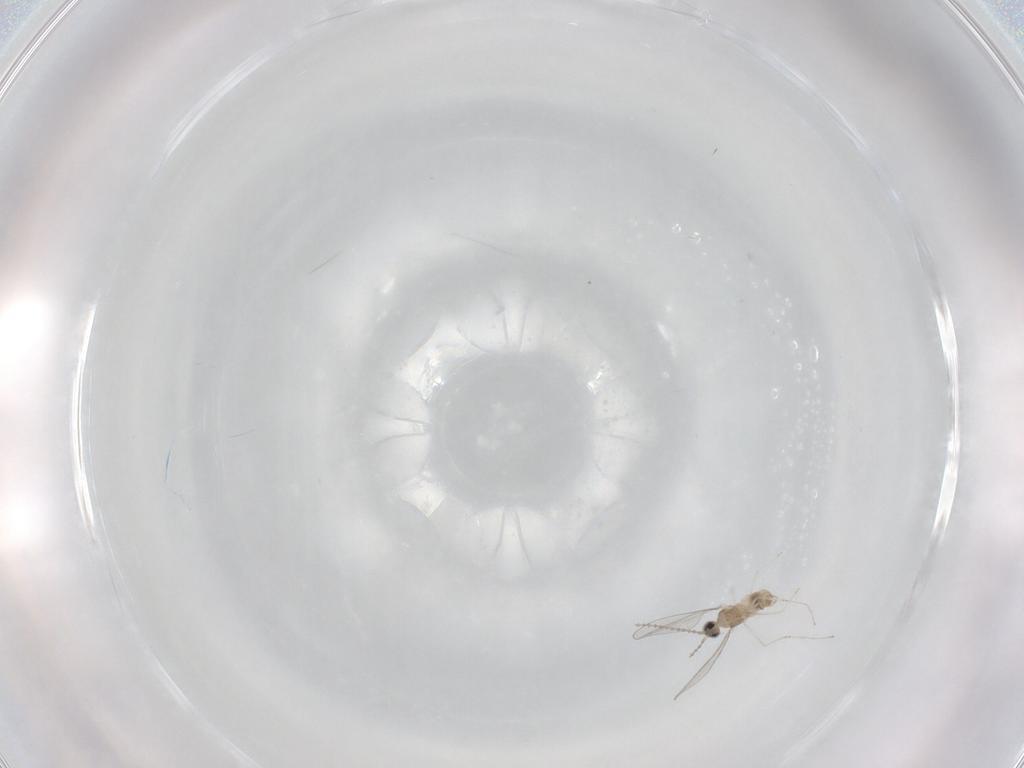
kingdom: Animalia
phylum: Arthropoda
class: Insecta
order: Diptera
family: Cecidomyiidae
